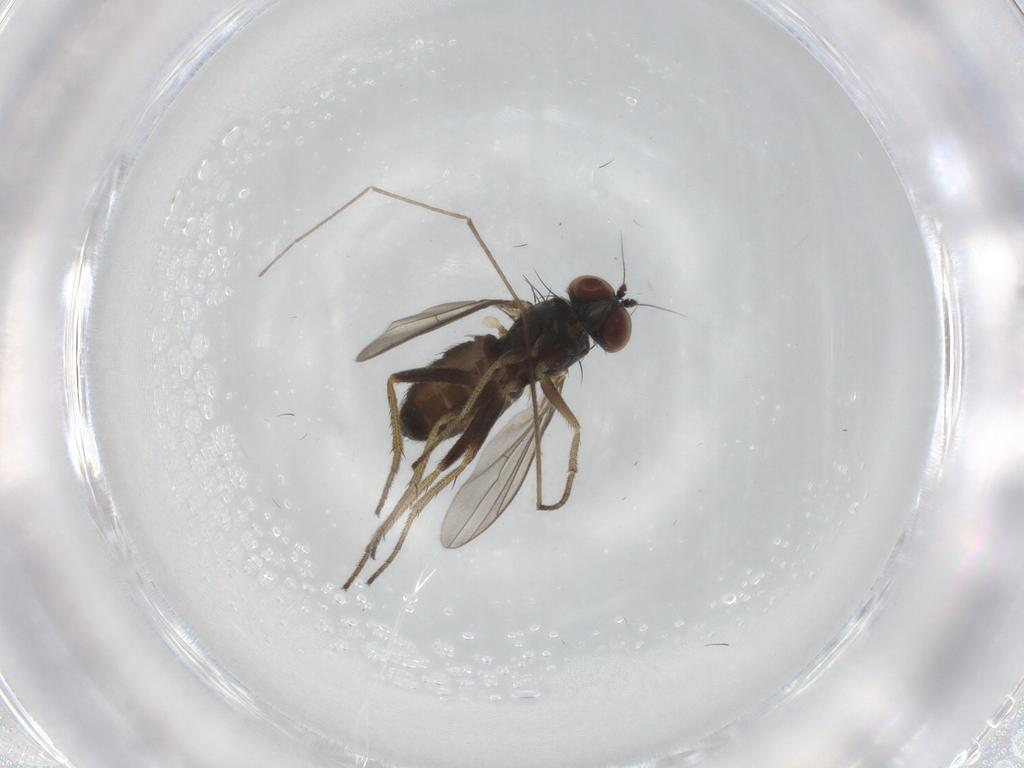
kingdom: Animalia
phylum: Arthropoda
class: Insecta
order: Diptera
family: Chironomidae
